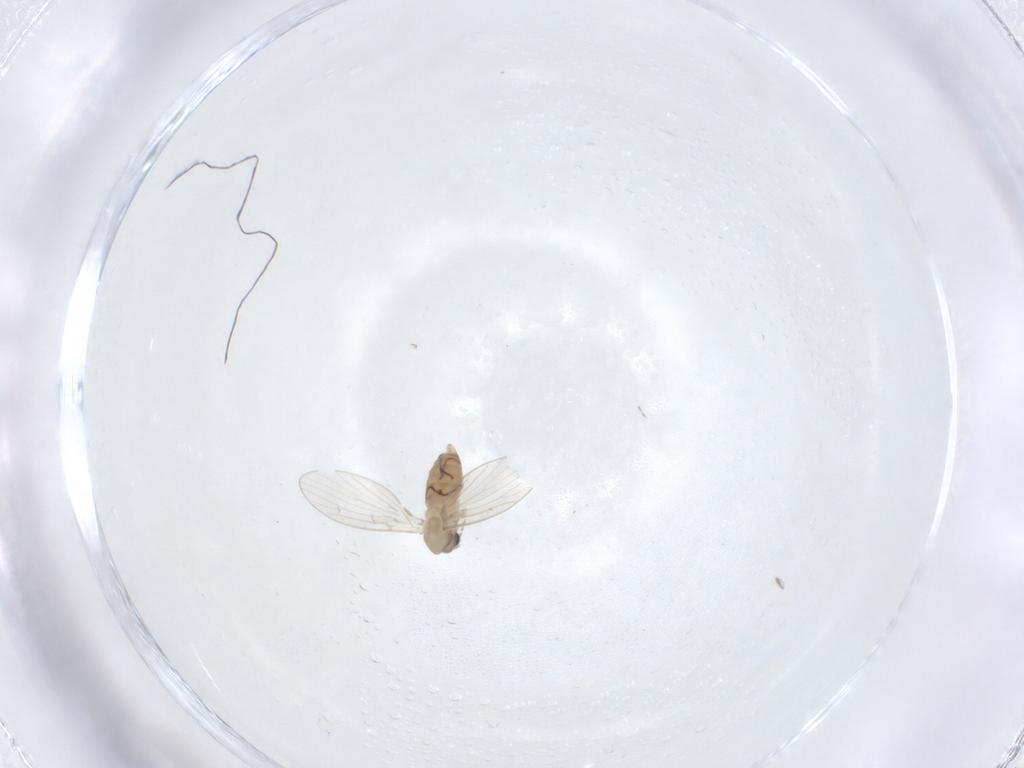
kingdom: Animalia
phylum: Arthropoda
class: Insecta
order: Diptera
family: Psychodidae
